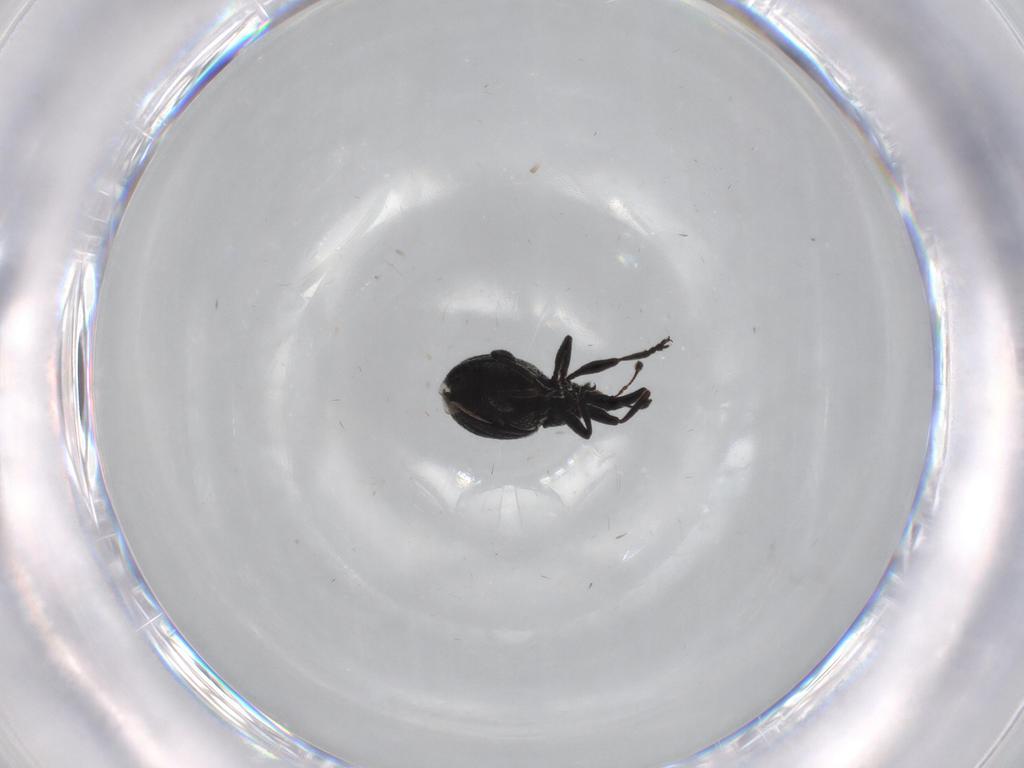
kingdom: Animalia
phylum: Arthropoda
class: Insecta
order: Coleoptera
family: Brentidae
